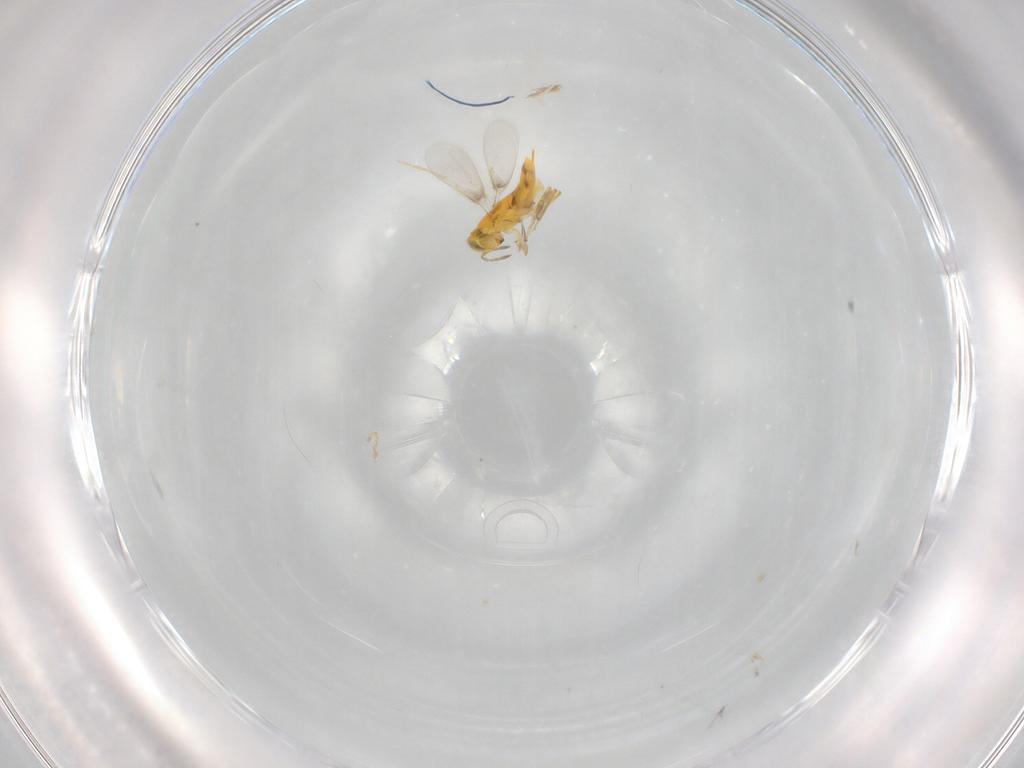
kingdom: Animalia
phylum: Arthropoda
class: Insecta
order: Hymenoptera
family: Aphelinidae
